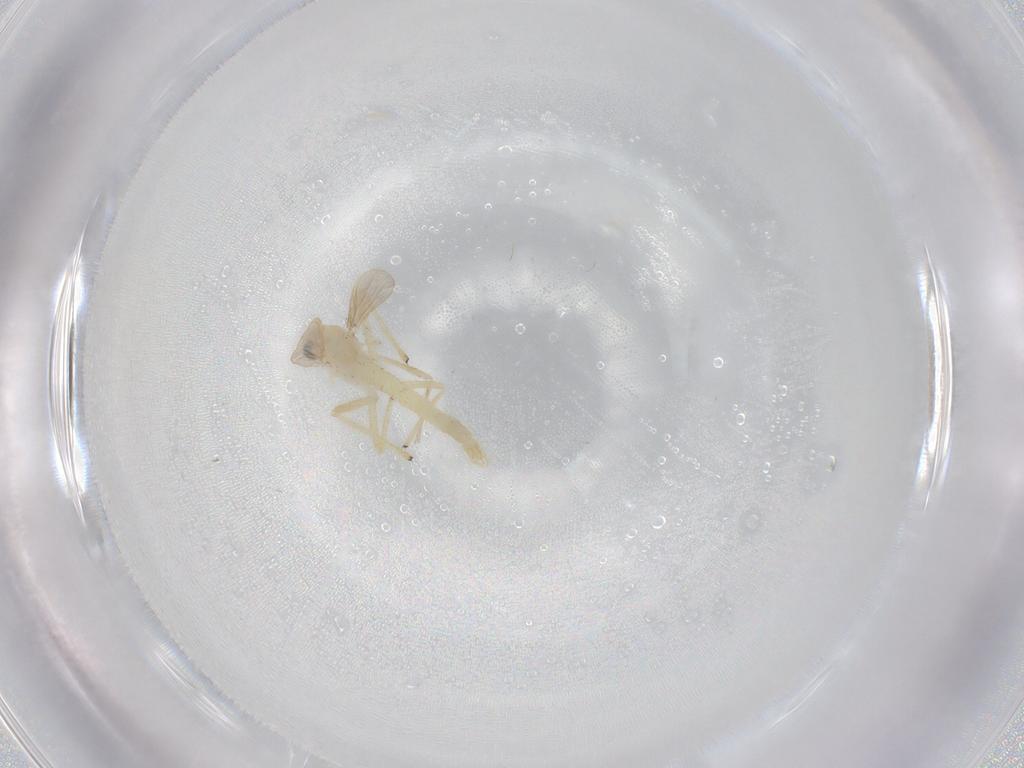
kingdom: Animalia
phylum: Arthropoda
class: Insecta
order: Diptera
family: Chironomidae
